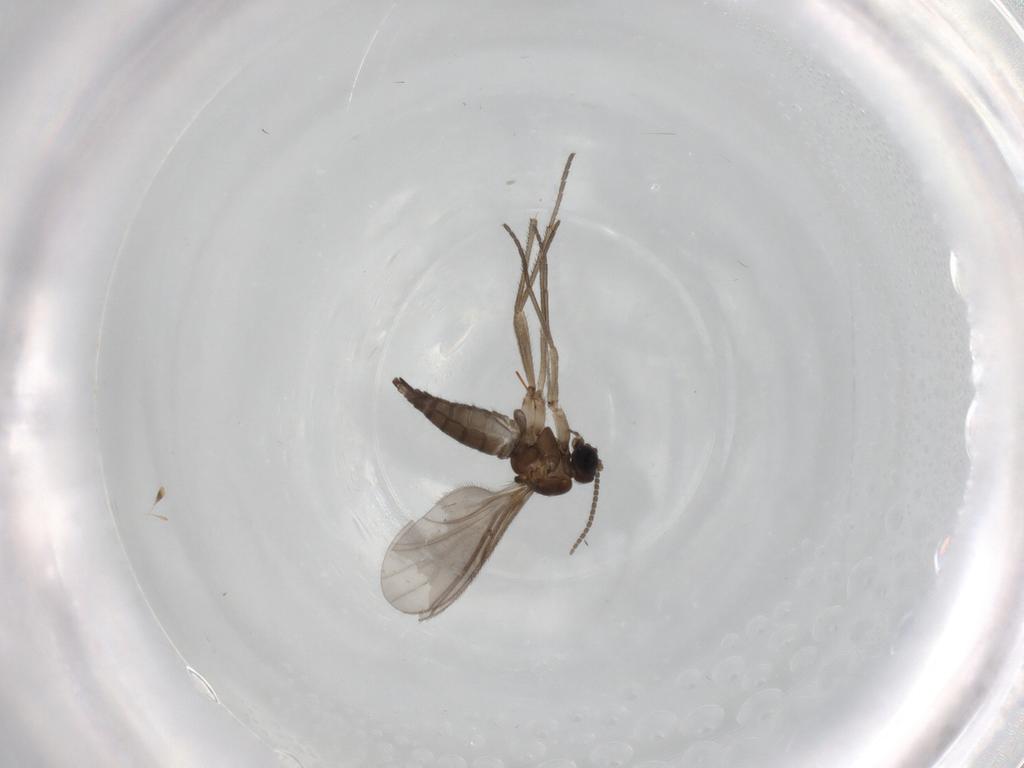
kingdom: Animalia
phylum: Arthropoda
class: Insecta
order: Diptera
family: Sciaridae
